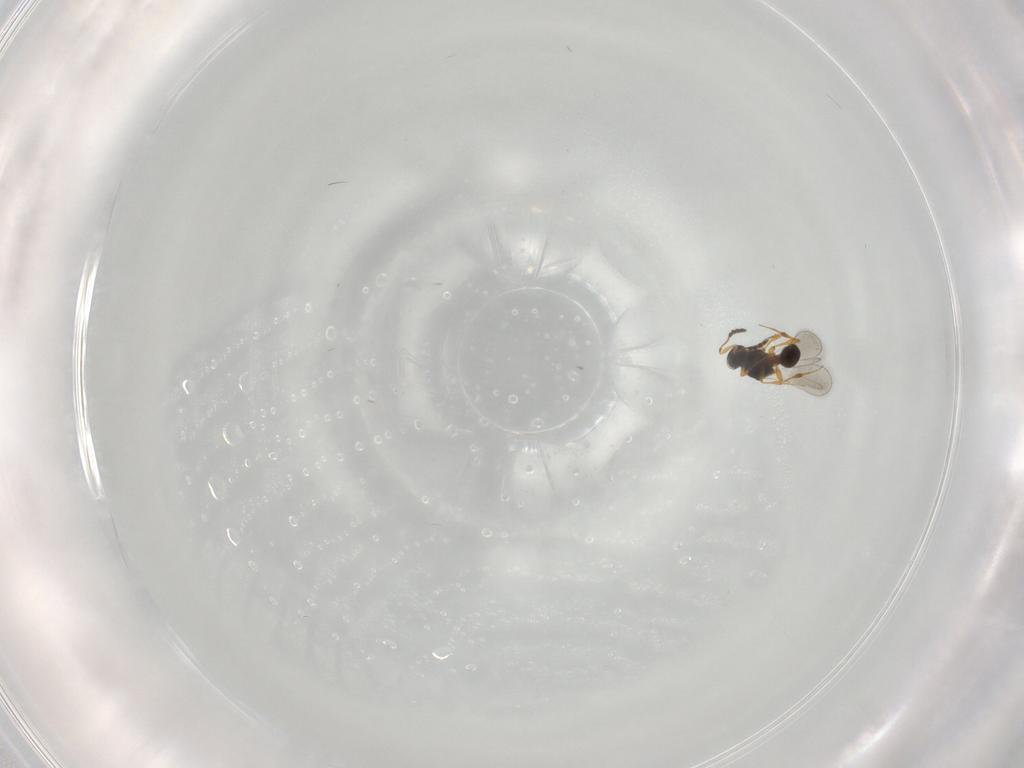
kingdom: Animalia
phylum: Arthropoda
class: Insecta
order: Hymenoptera
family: Platygastridae
